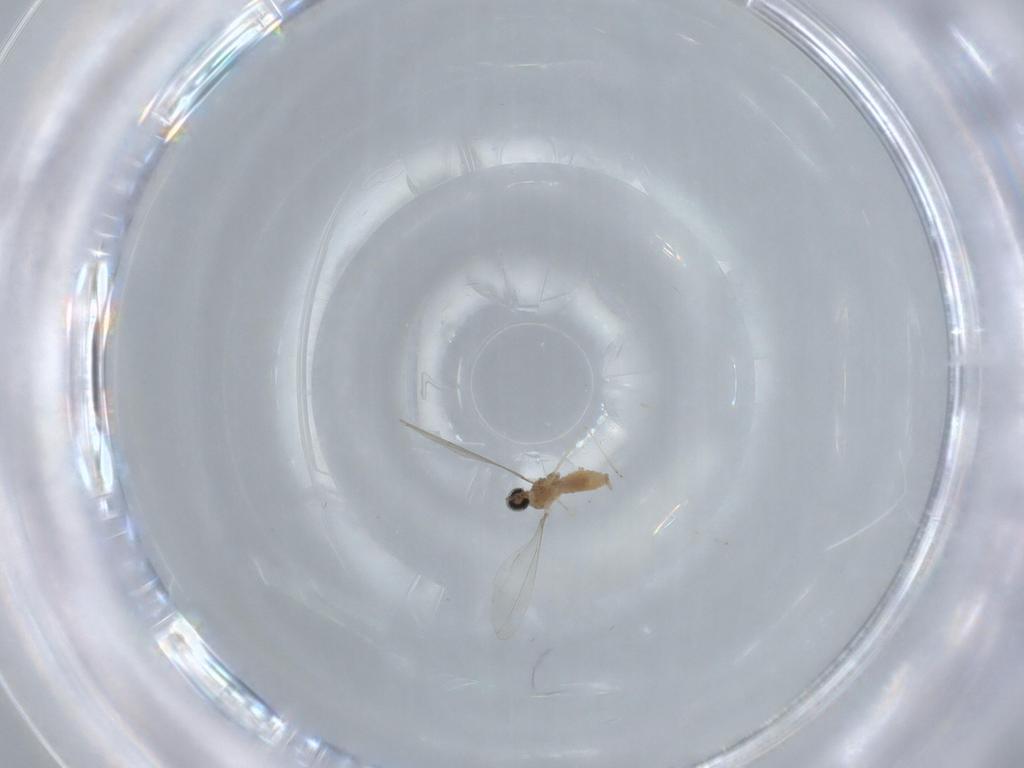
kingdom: Animalia
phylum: Arthropoda
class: Insecta
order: Diptera
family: Cecidomyiidae
